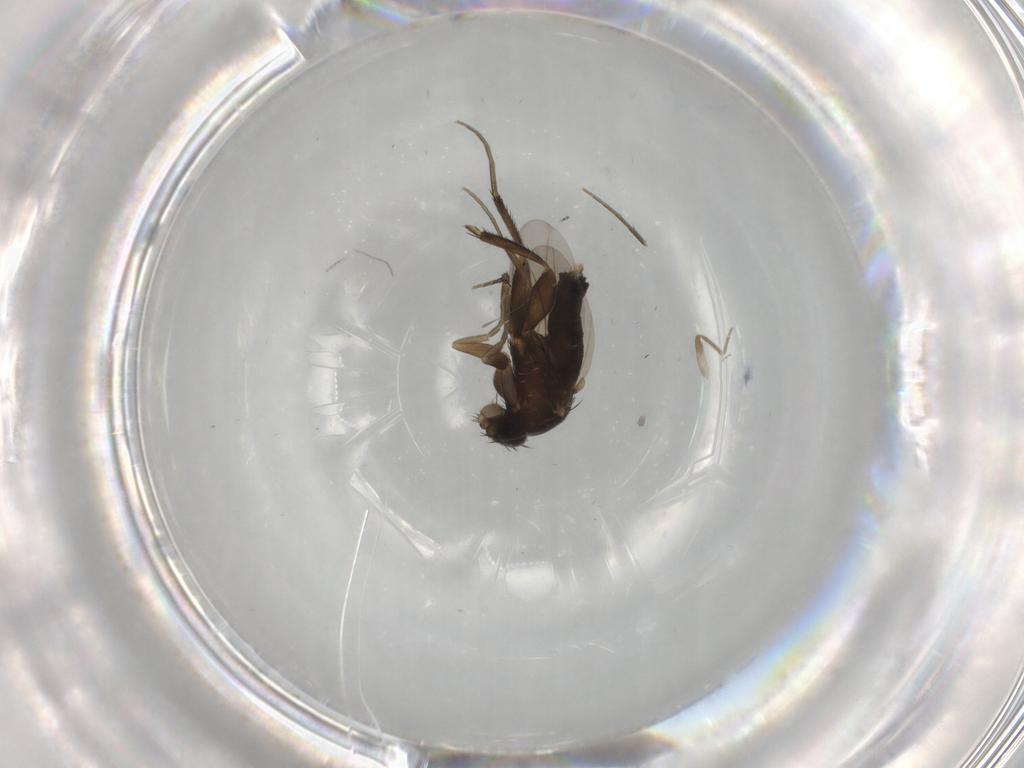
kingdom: Animalia
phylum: Arthropoda
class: Insecta
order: Diptera
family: Phoridae
